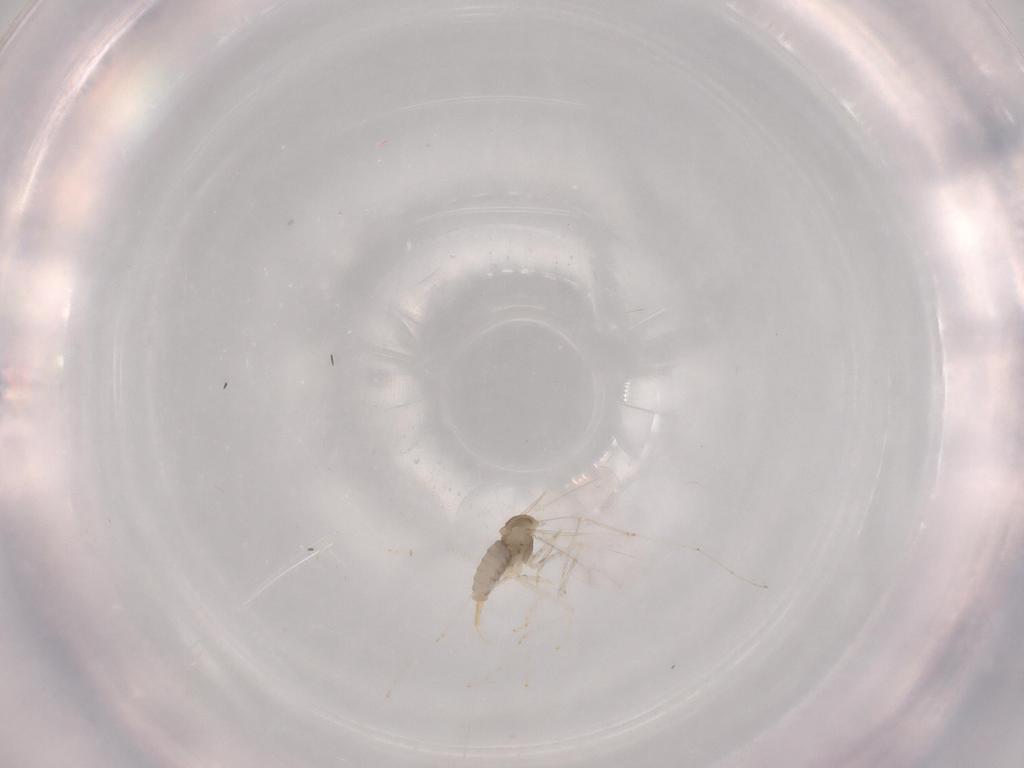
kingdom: Animalia
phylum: Arthropoda
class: Insecta
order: Diptera
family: Cecidomyiidae
